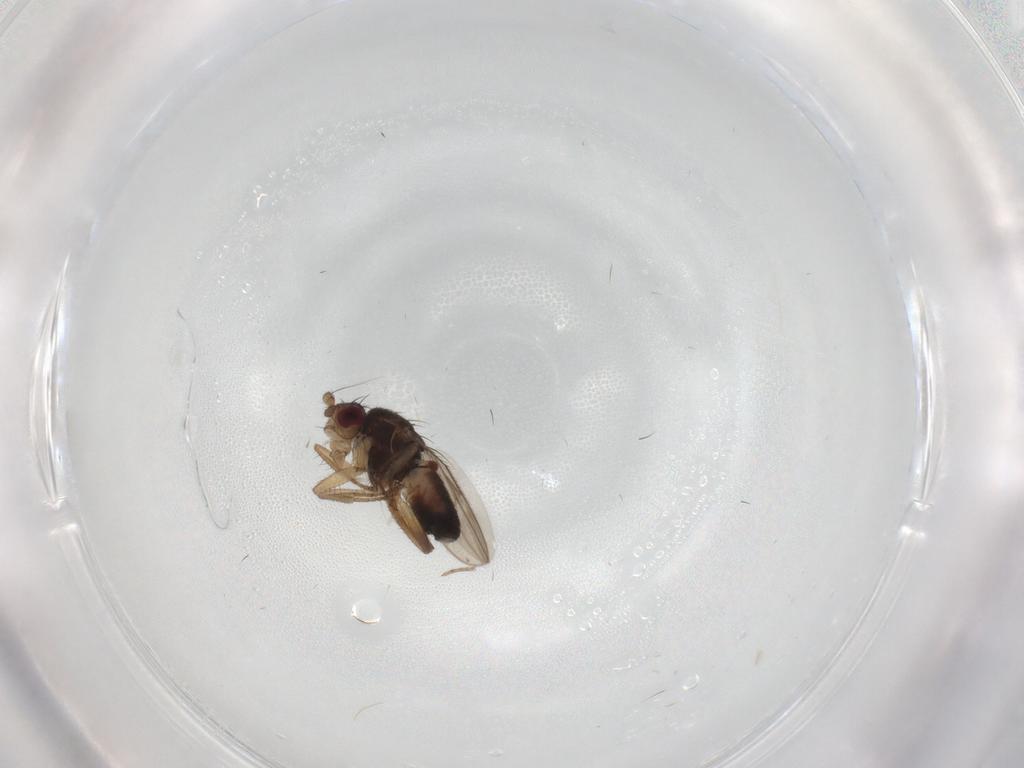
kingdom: Animalia
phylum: Arthropoda
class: Insecta
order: Diptera
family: Sphaeroceridae
